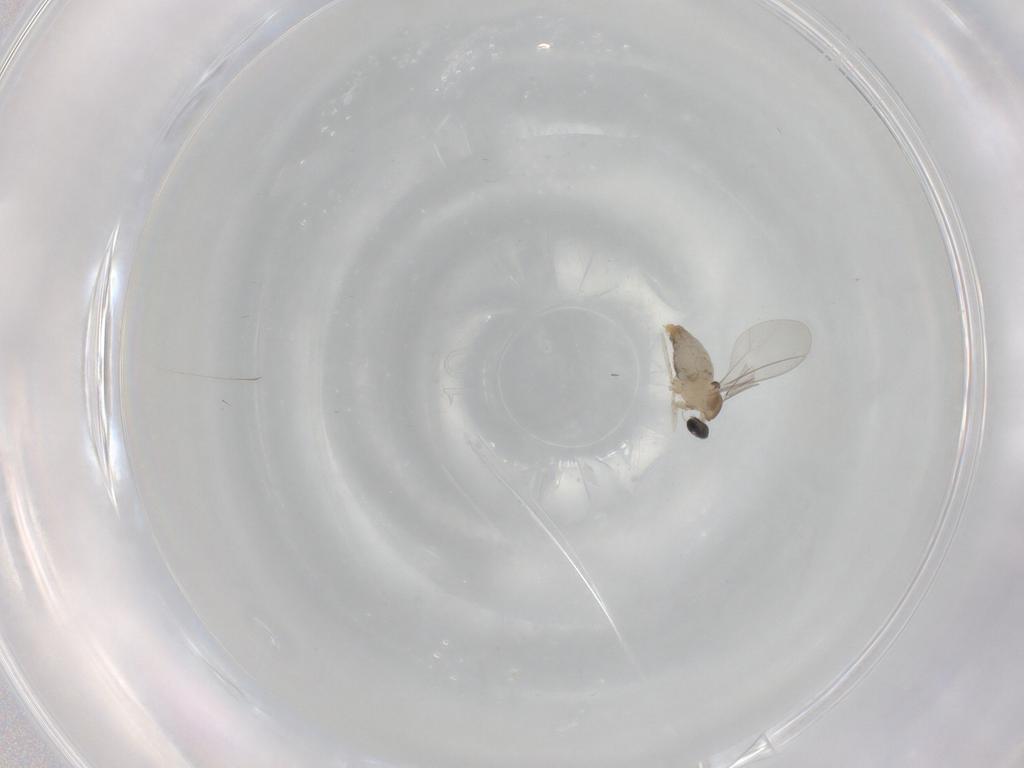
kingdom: Animalia
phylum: Arthropoda
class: Insecta
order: Diptera
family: Cecidomyiidae
